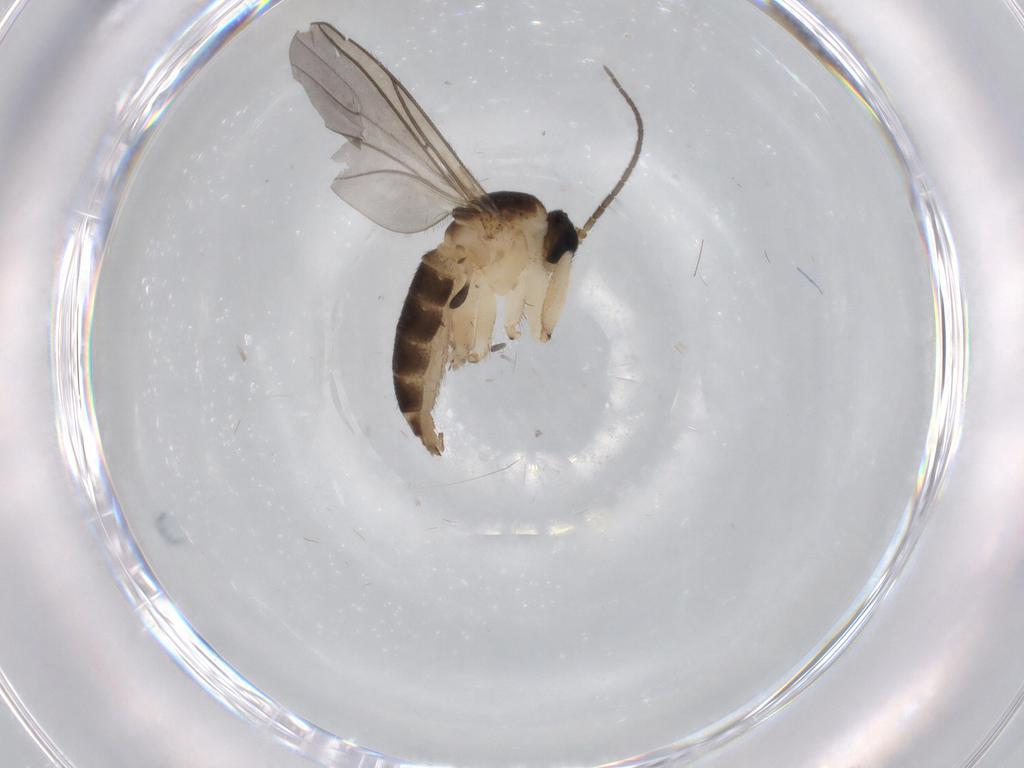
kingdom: Animalia
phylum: Arthropoda
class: Insecta
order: Diptera
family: Sciaridae
